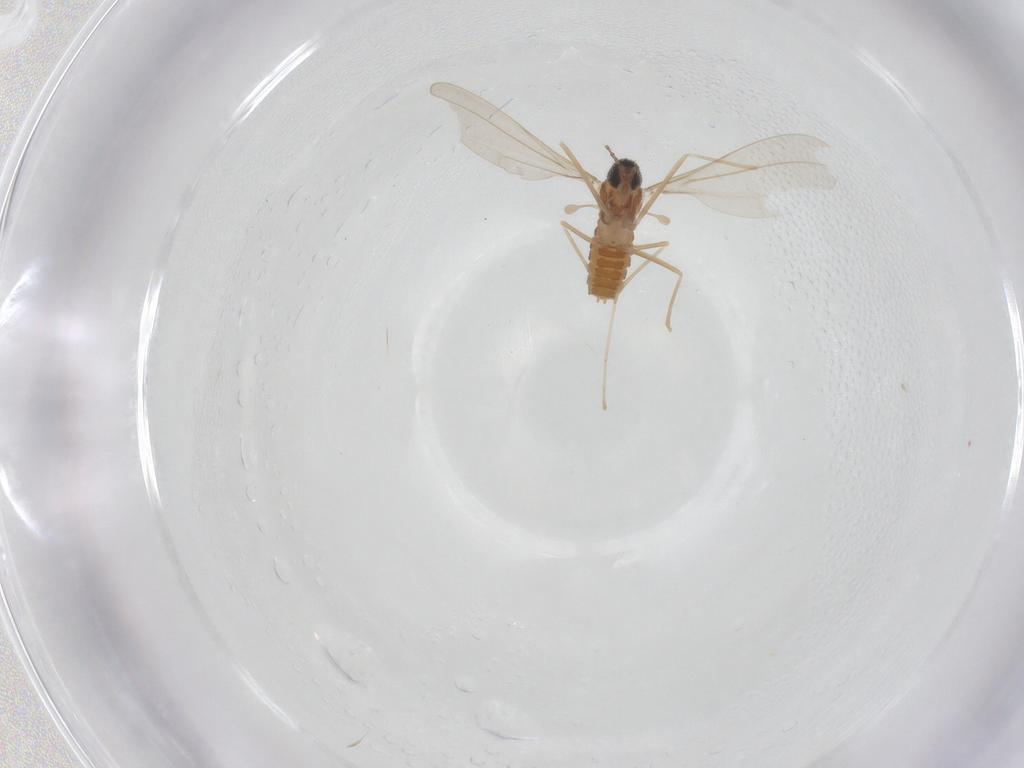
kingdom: Animalia
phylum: Arthropoda
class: Insecta
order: Diptera
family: Cecidomyiidae
